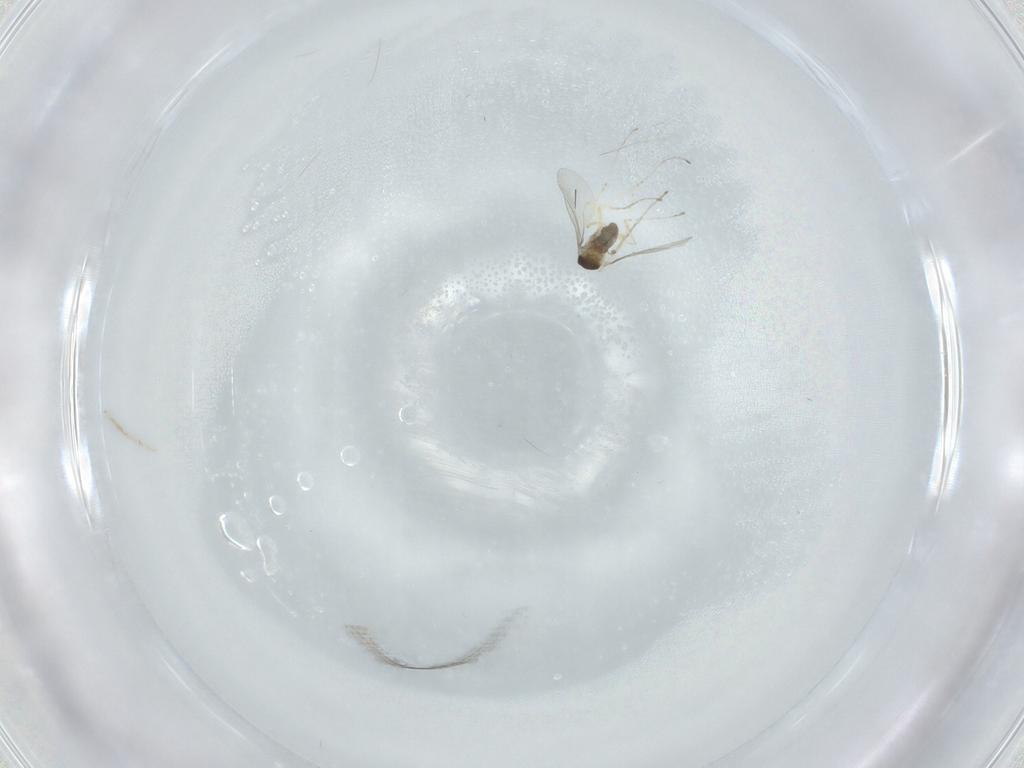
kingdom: Animalia
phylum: Arthropoda
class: Insecta
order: Diptera
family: Cecidomyiidae
